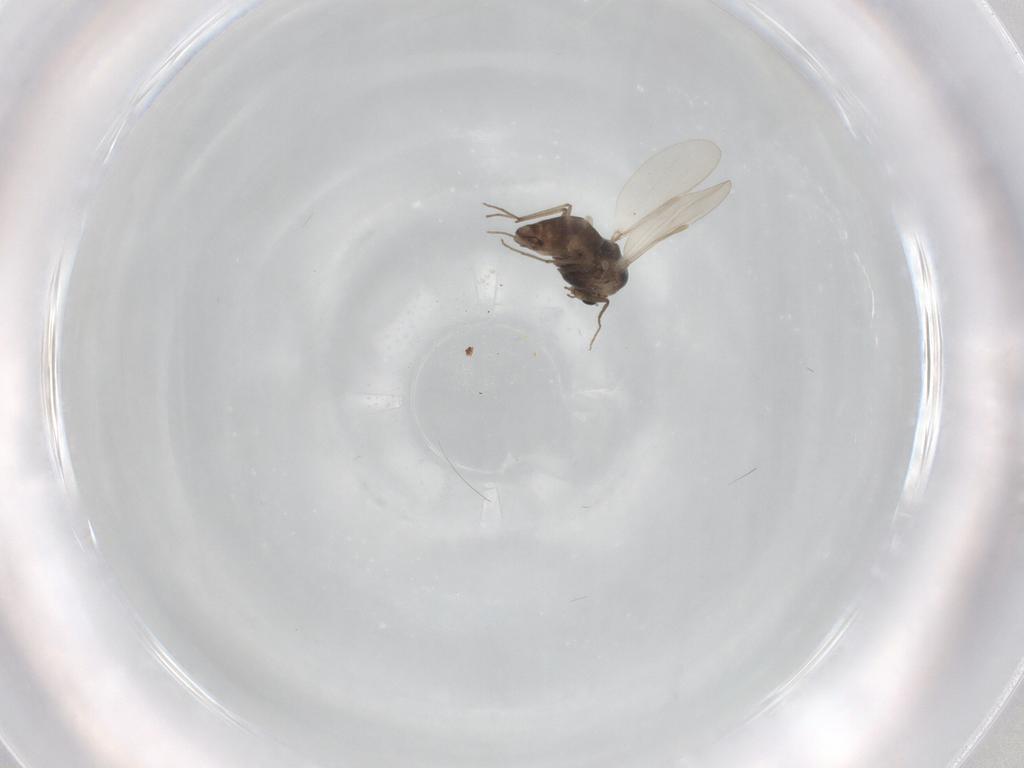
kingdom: Animalia
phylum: Arthropoda
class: Insecta
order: Diptera
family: Chironomidae
